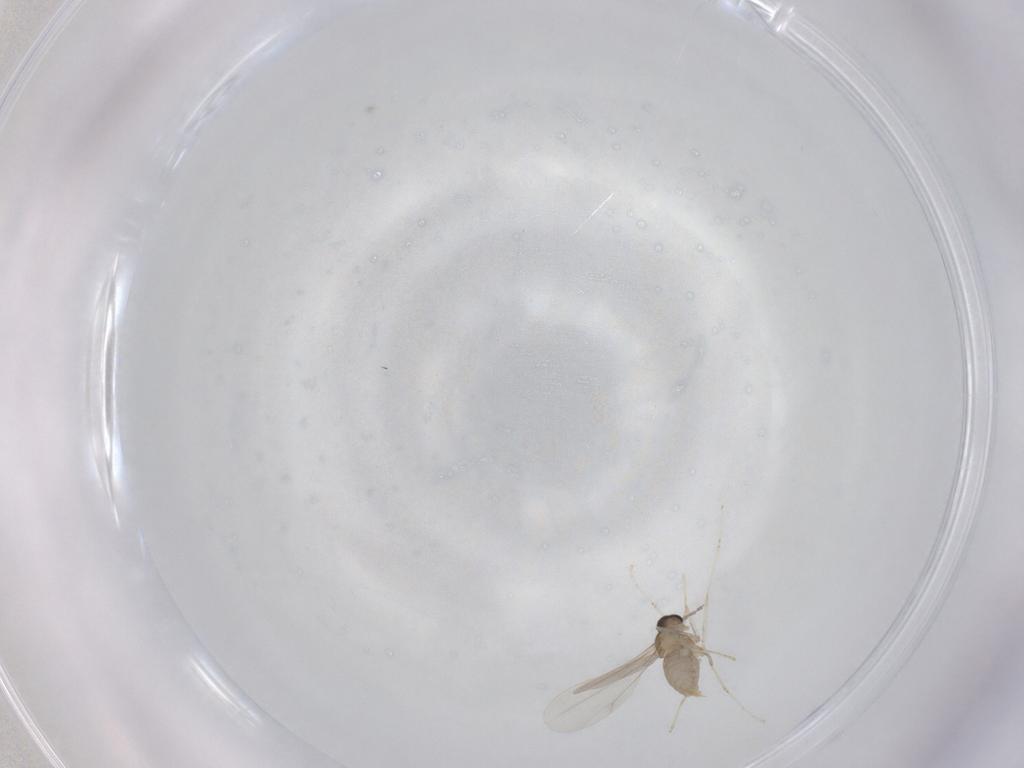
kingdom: Animalia
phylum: Arthropoda
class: Insecta
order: Diptera
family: Cecidomyiidae
